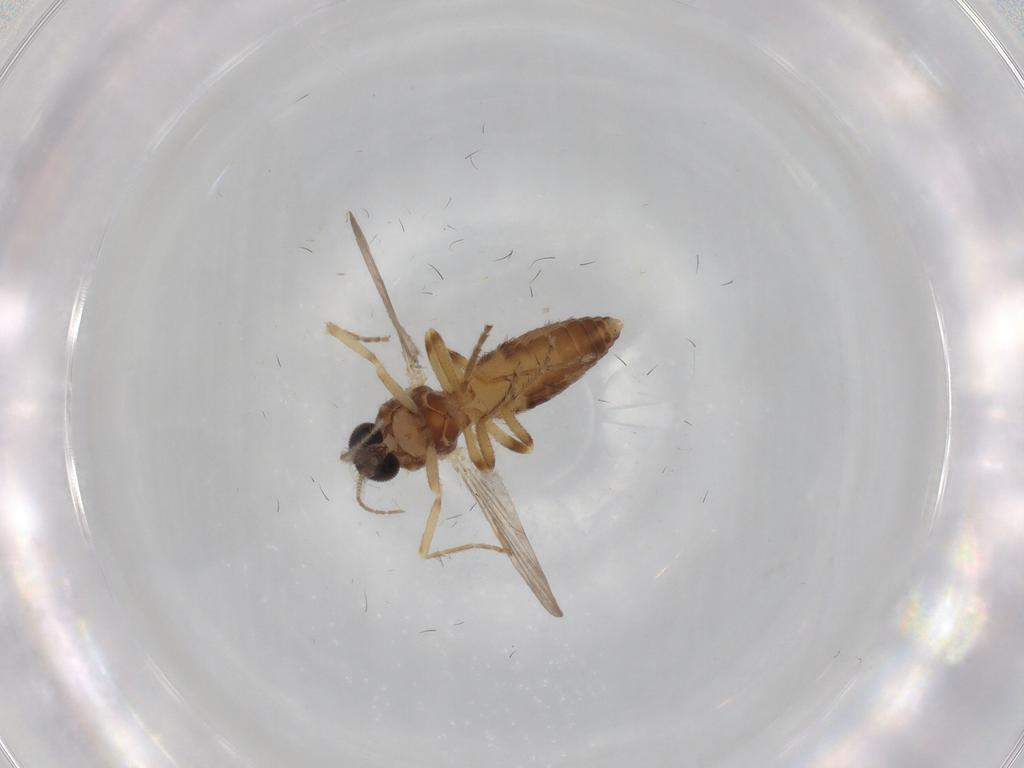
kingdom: Animalia
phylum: Arthropoda
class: Insecta
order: Diptera
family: Ceratopogonidae
